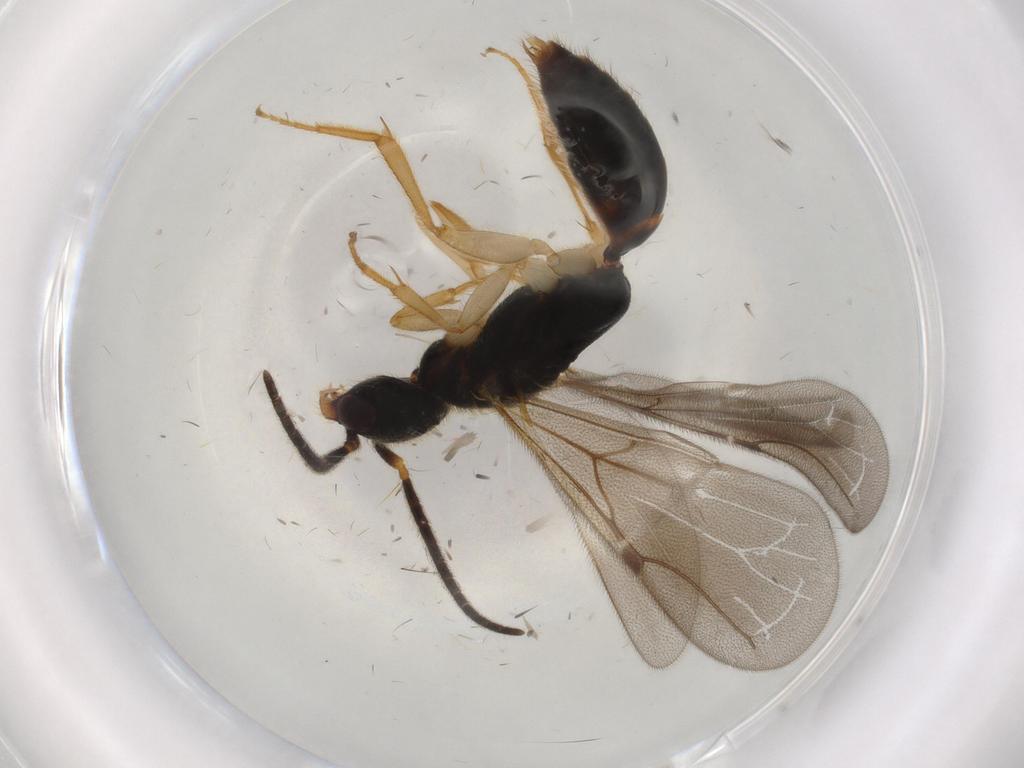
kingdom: Animalia
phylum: Arthropoda
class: Insecta
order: Hymenoptera
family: Bethylidae
